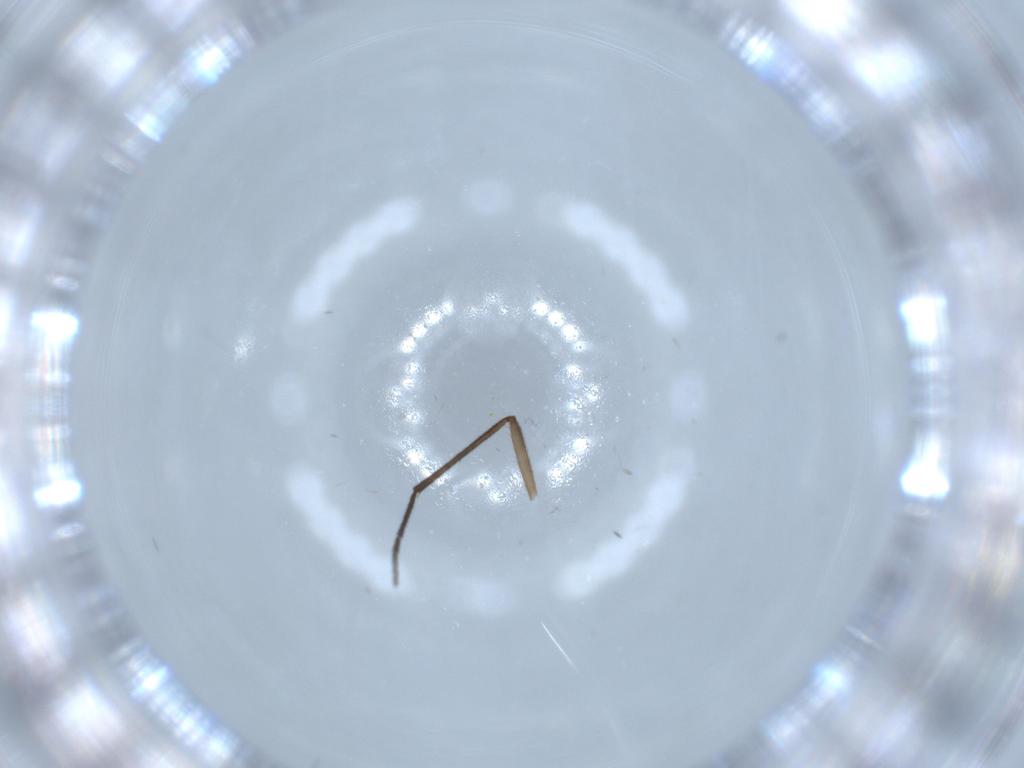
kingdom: Animalia
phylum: Arthropoda
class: Insecta
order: Diptera
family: Sciaridae
